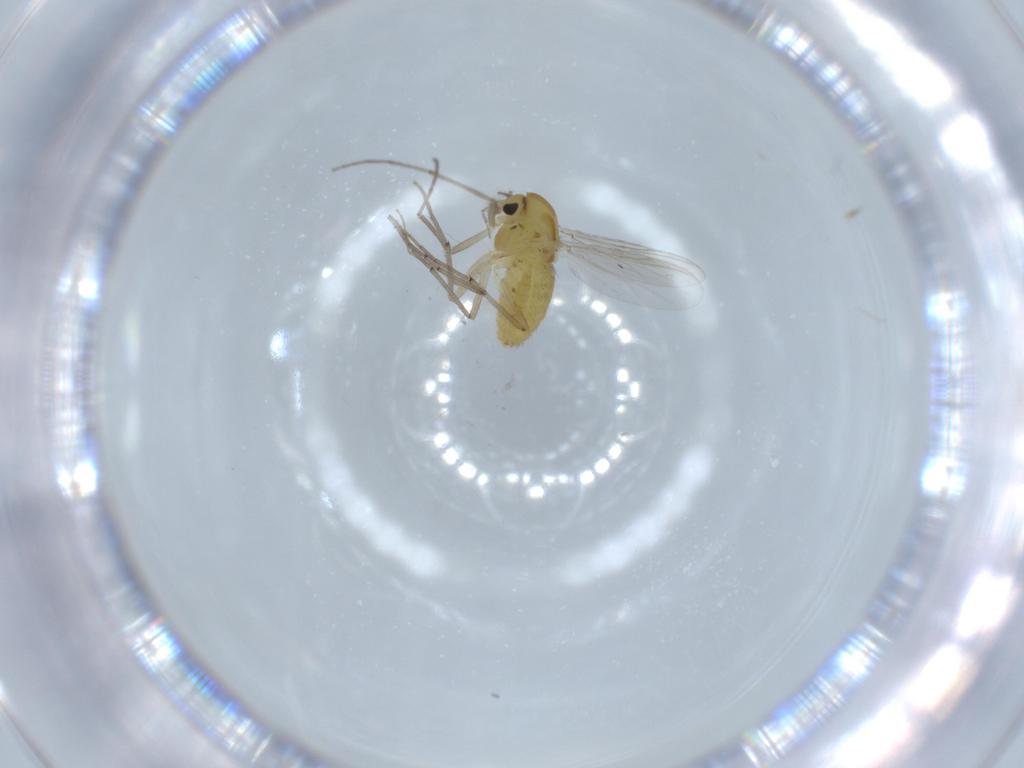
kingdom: Animalia
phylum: Arthropoda
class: Insecta
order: Diptera
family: Chironomidae
